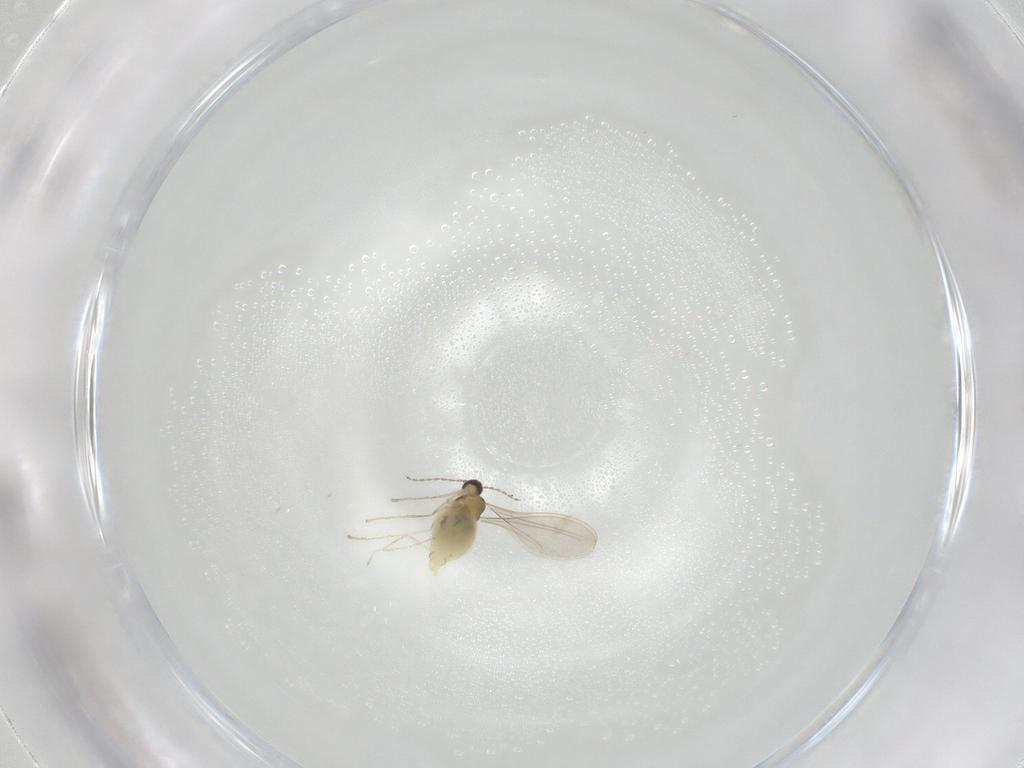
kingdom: Animalia
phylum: Arthropoda
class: Insecta
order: Diptera
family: Cecidomyiidae
